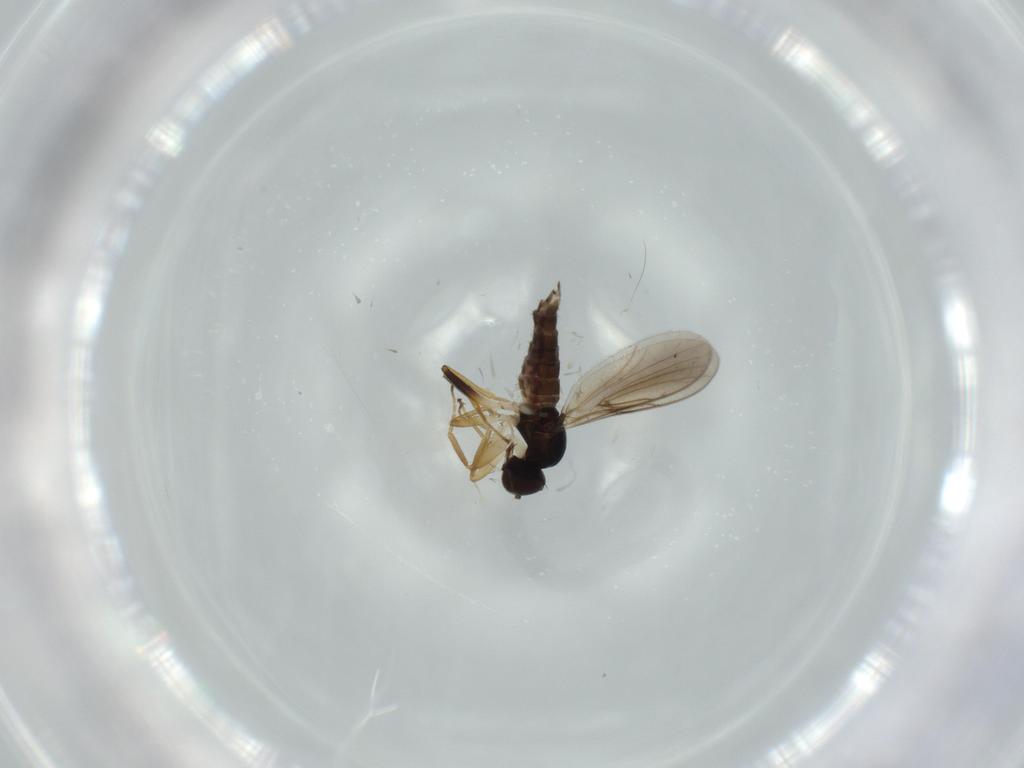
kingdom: Animalia
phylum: Arthropoda
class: Insecta
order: Diptera
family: Hybotidae
